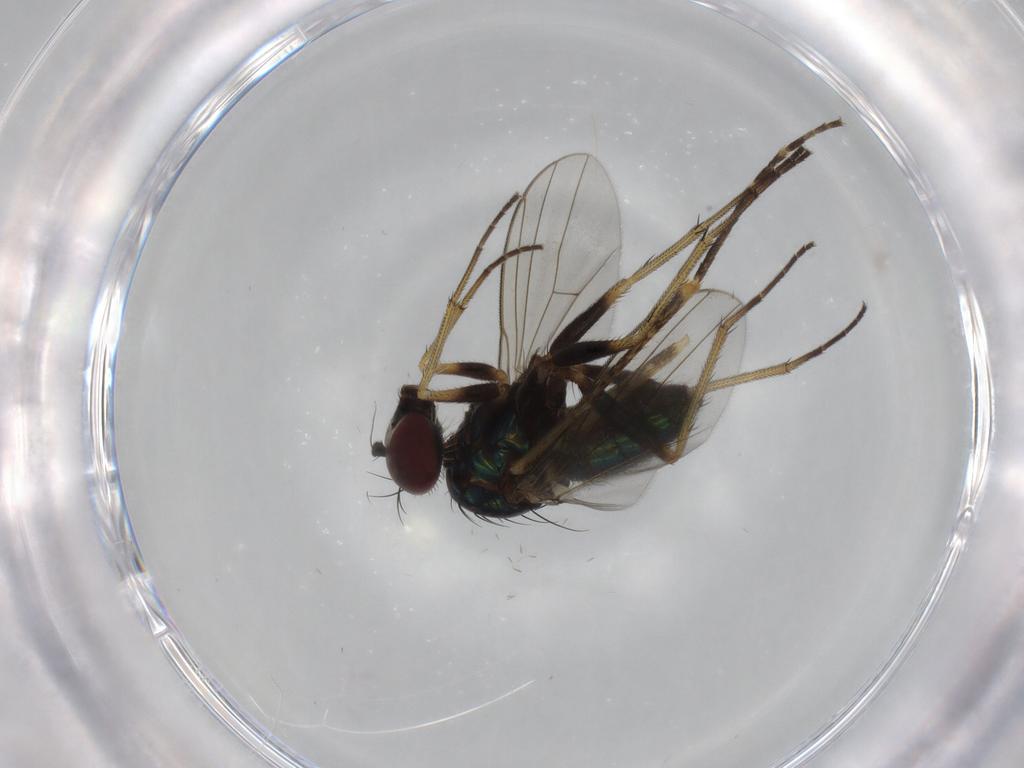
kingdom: Animalia
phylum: Arthropoda
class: Insecta
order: Diptera
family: Dolichopodidae
